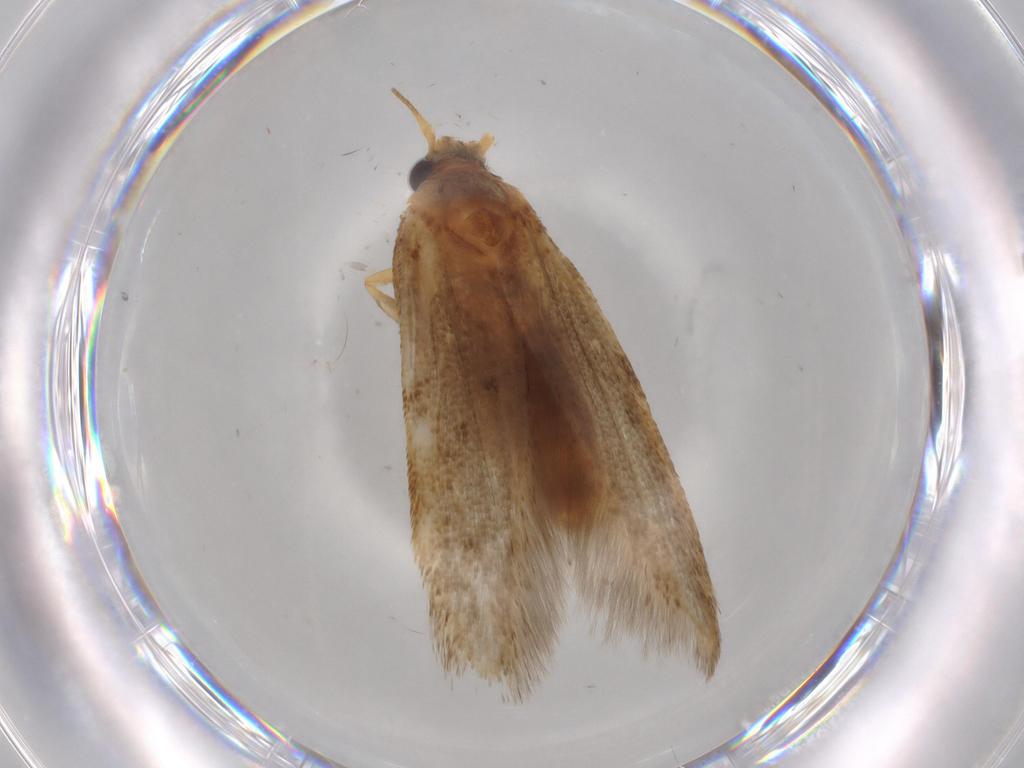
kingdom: Animalia
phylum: Arthropoda
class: Insecta
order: Lepidoptera
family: Blastobasidae
